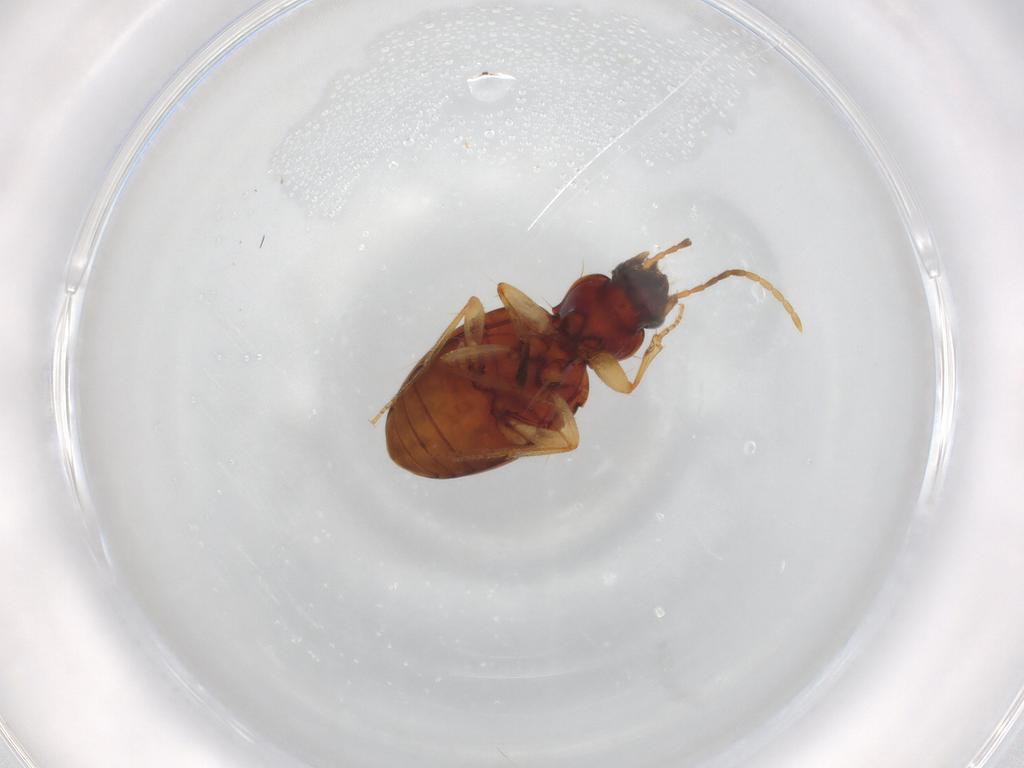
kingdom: Animalia
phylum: Arthropoda
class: Insecta
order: Coleoptera
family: Carabidae
